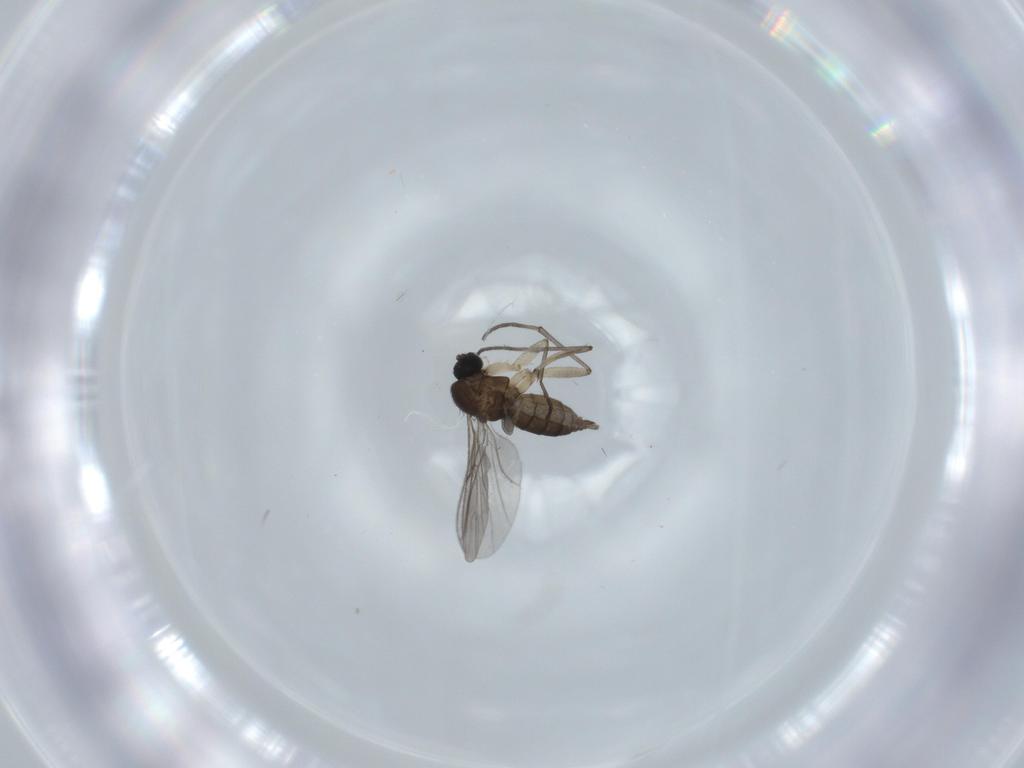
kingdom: Animalia
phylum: Arthropoda
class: Insecta
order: Diptera
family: Sciaridae
